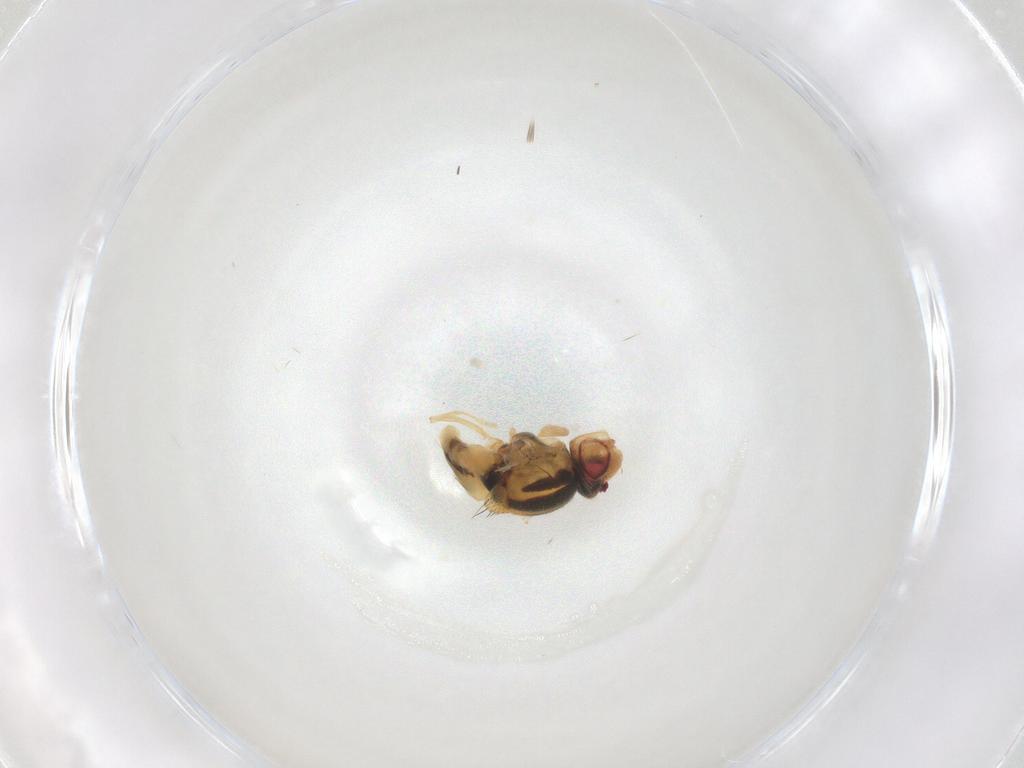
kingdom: Animalia
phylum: Arthropoda
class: Insecta
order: Diptera
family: Chloropidae
